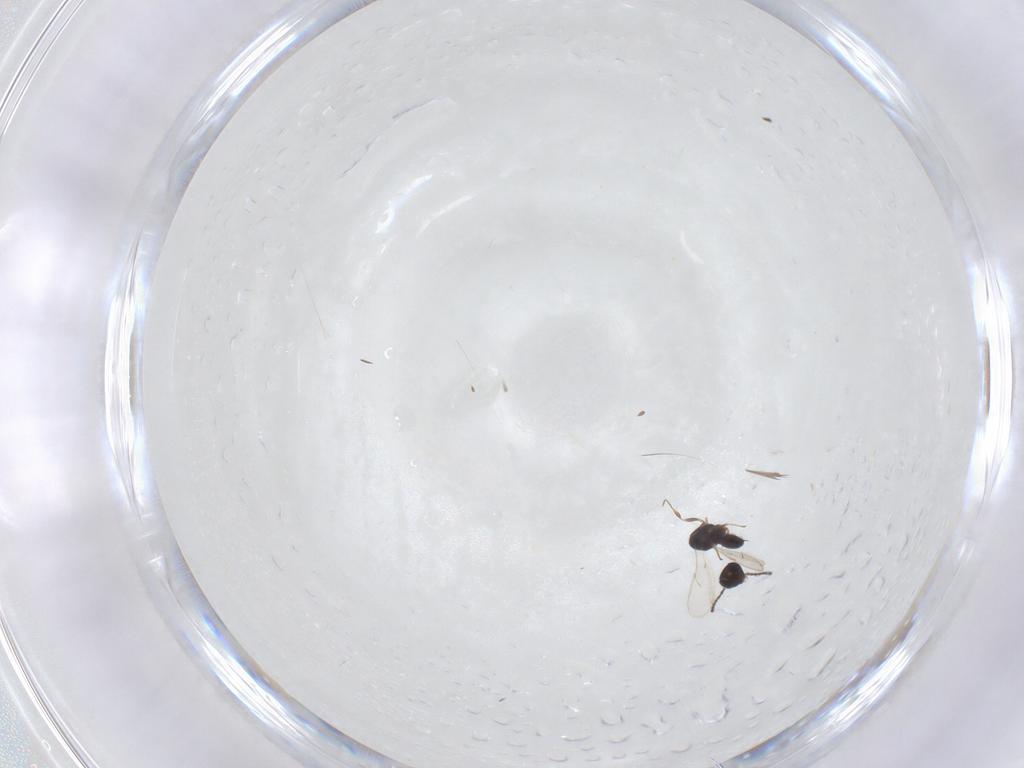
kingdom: Animalia
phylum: Arthropoda
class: Insecta
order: Hymenoptera
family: Scelionidae
